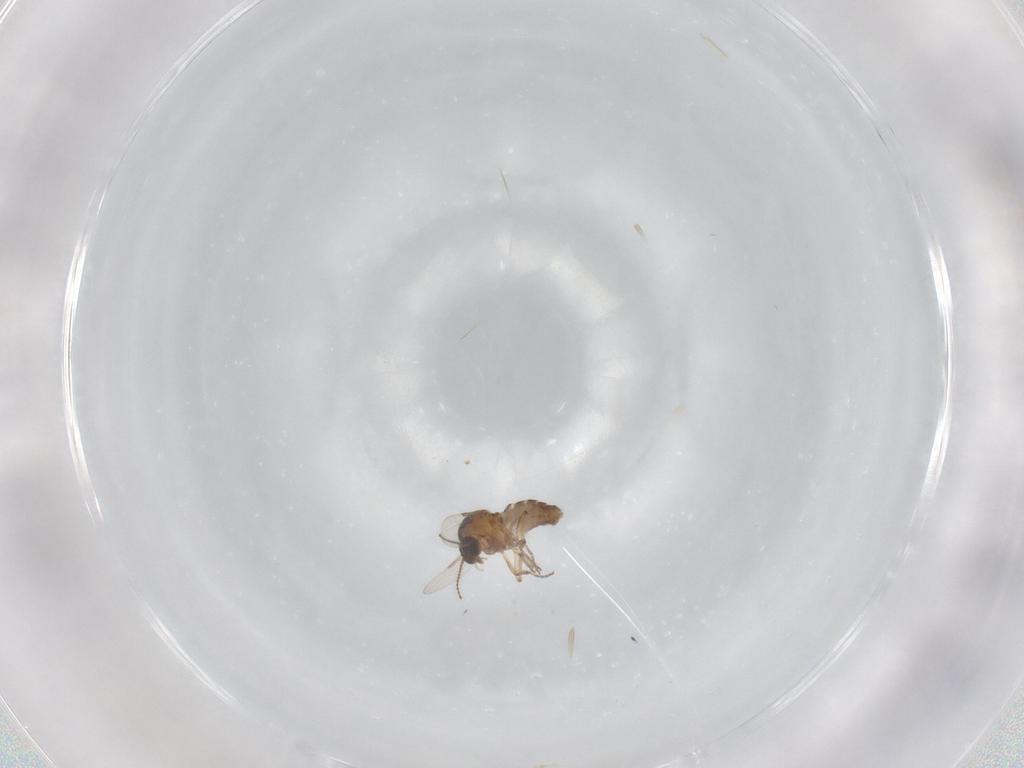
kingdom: Animalia
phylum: Arthropoda
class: Insecta
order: Diptera
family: Ceratopogonidae
